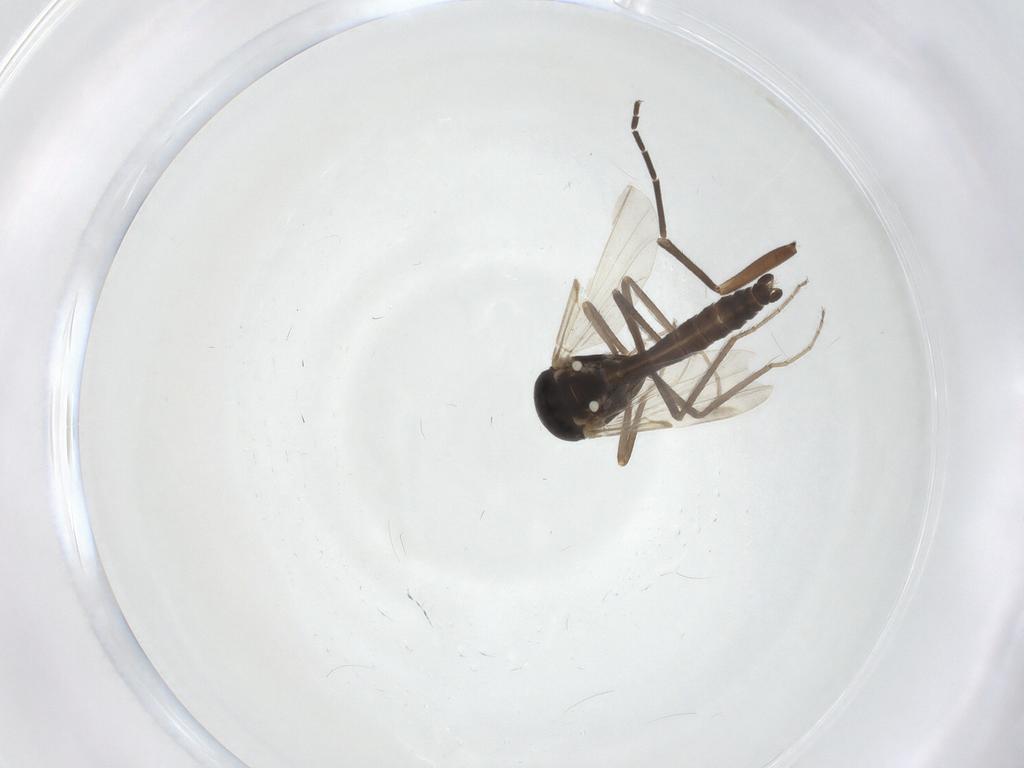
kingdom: Animalia
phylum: Arthropoda
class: Insecta
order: Diptera
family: Ceratopogonidae
